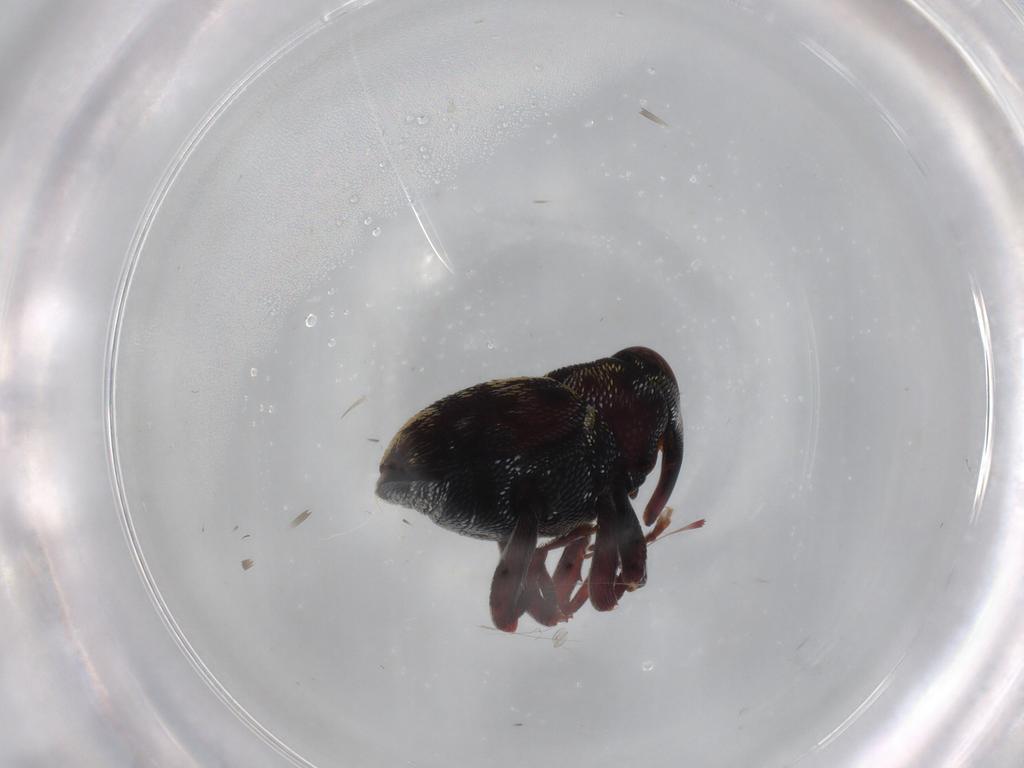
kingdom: Animalia
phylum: Arthropoda
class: Insecta
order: Coleoptera
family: Curculionidae
